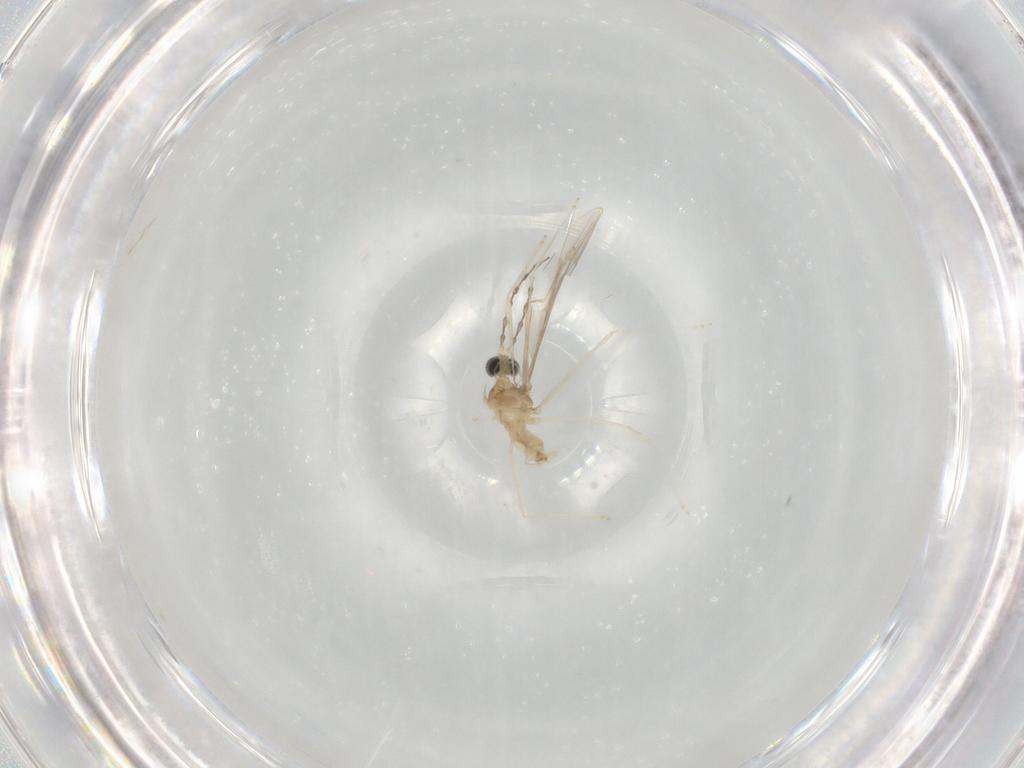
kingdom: Animalia
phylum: Arthropoda
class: Insecta
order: Diptera
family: Cecidomyiidae
